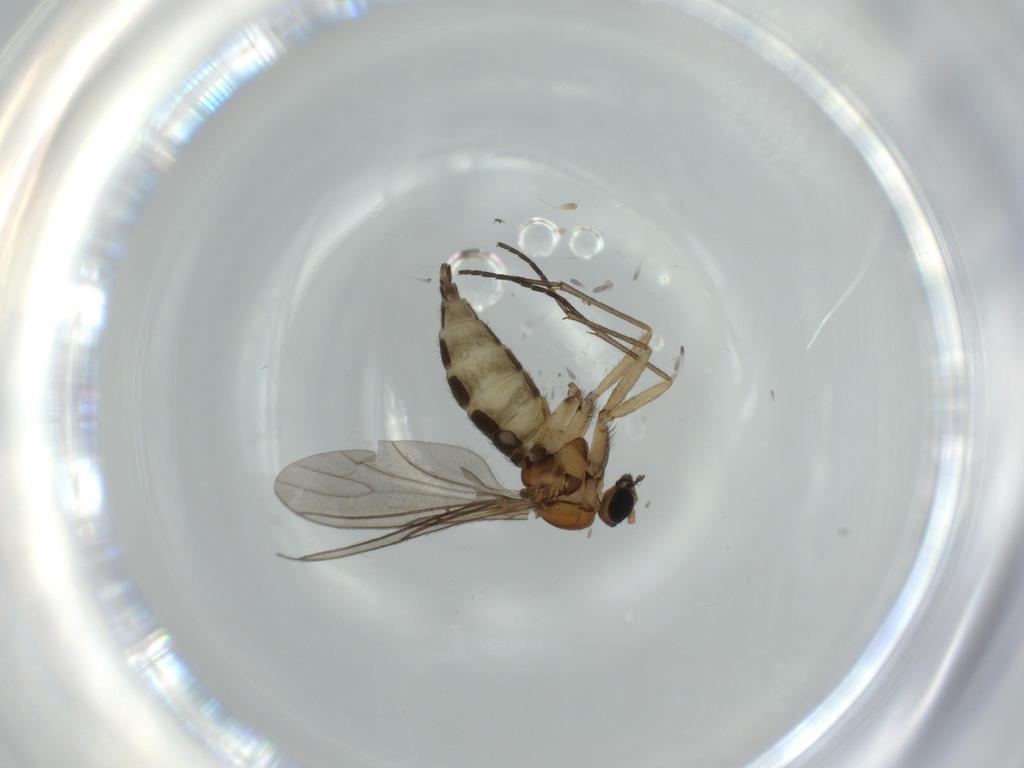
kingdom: Animalia
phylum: Arthropoda
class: Insecta
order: Diptera
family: Sciaridae
